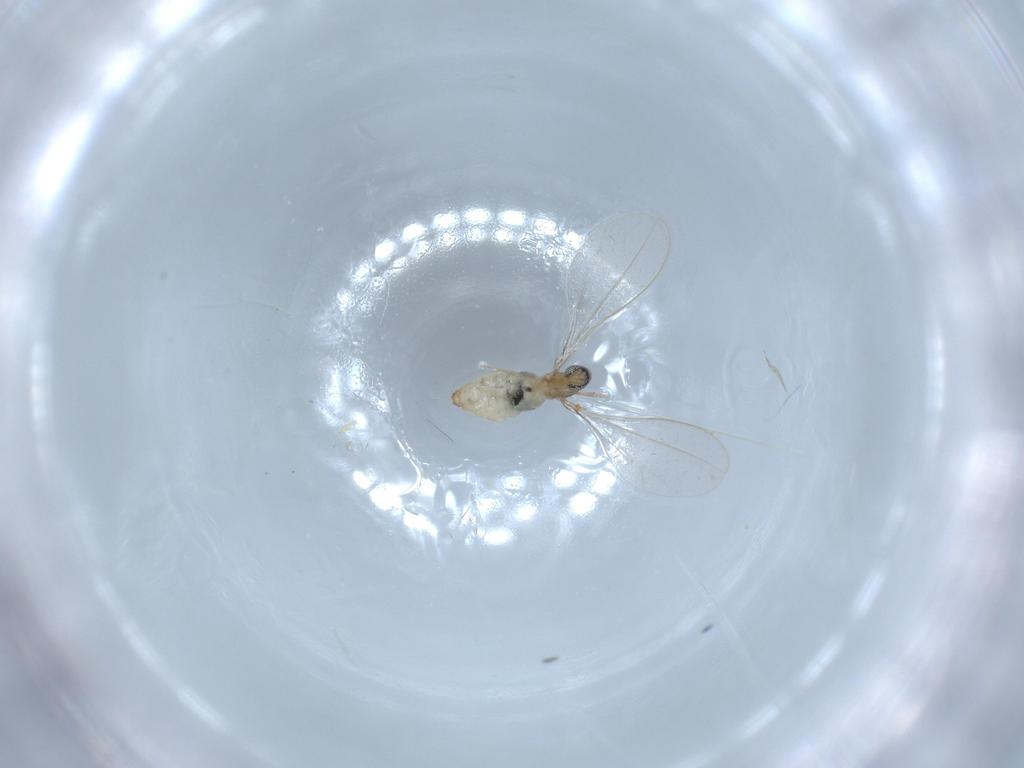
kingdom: Animalia
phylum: Arthropoda
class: Insecta
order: Diptera
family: Cecidomyiidae
